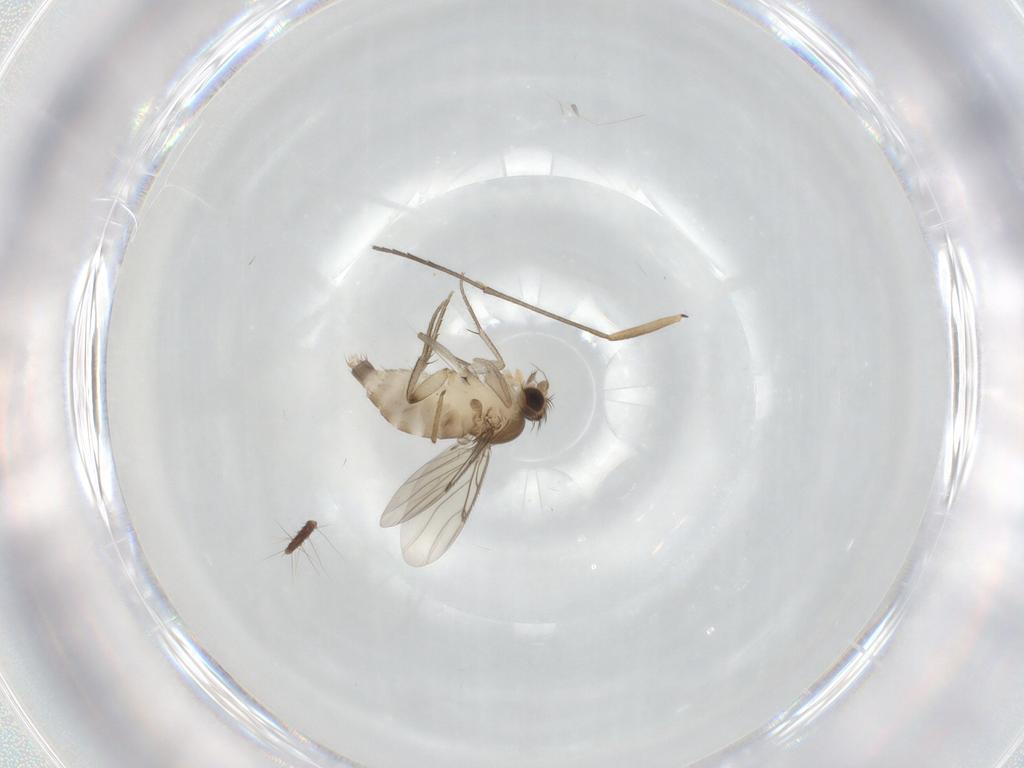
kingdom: Animalia
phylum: Arthropoda
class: Insecta
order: Diptera
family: Phoridae
